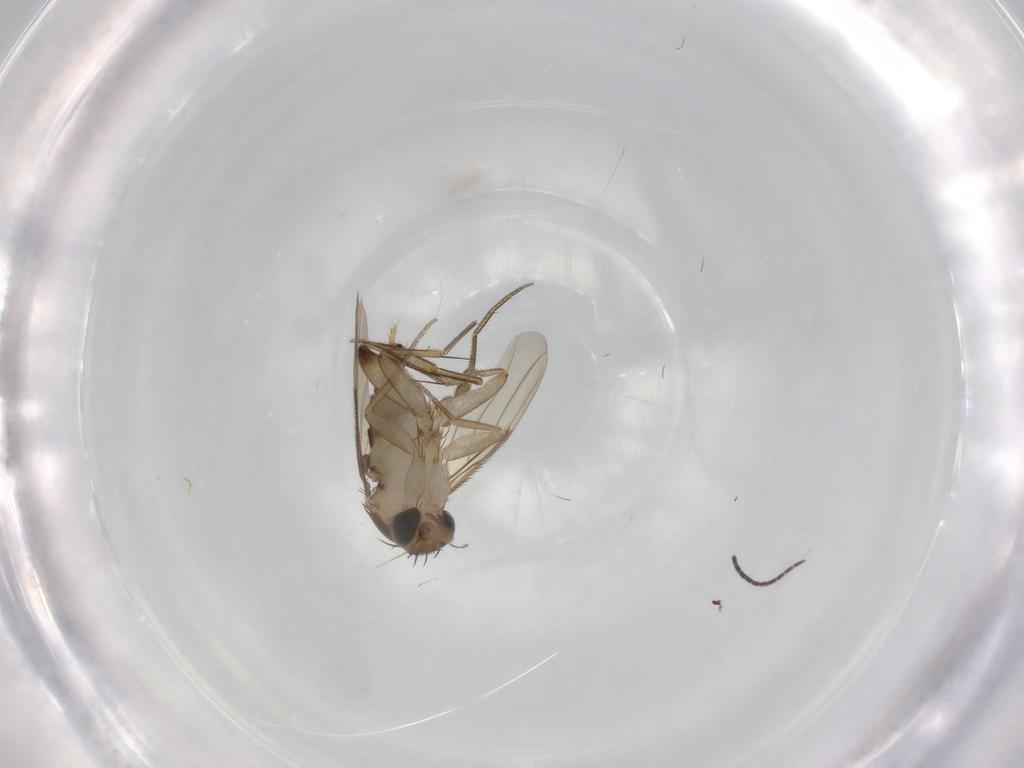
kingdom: Animalia
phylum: Arthropoda
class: Insecta
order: Diptera
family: Phoridae
